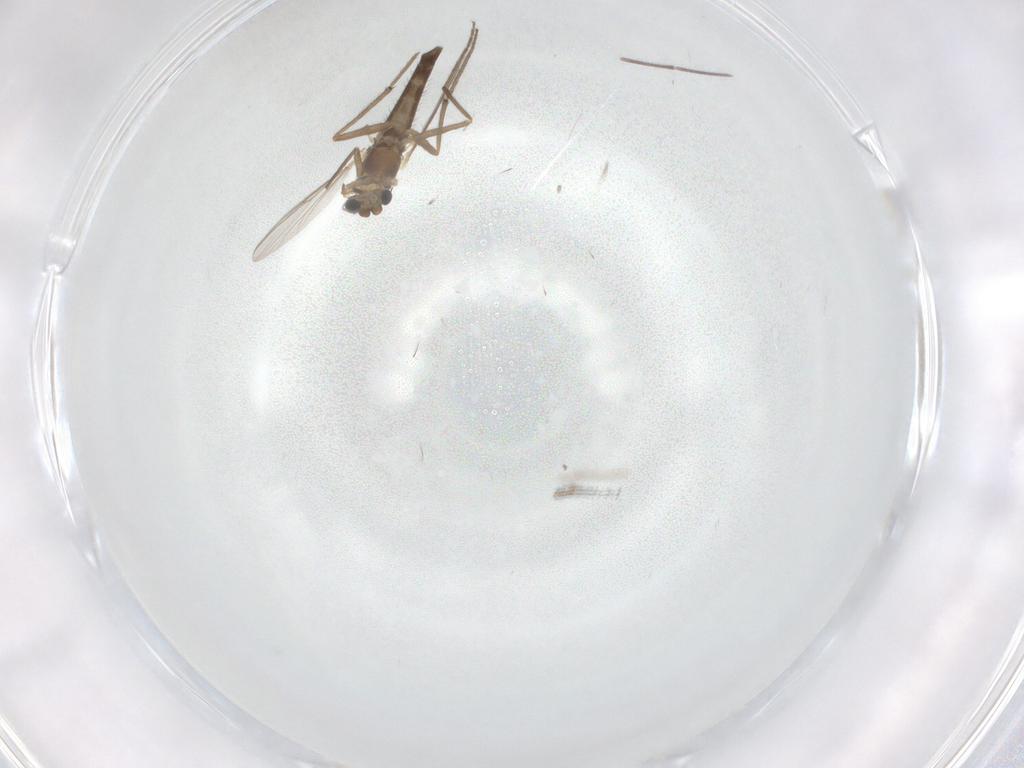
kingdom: Animalia
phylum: Arthropoda
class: Insecta
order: Diptera
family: Chironomidae
